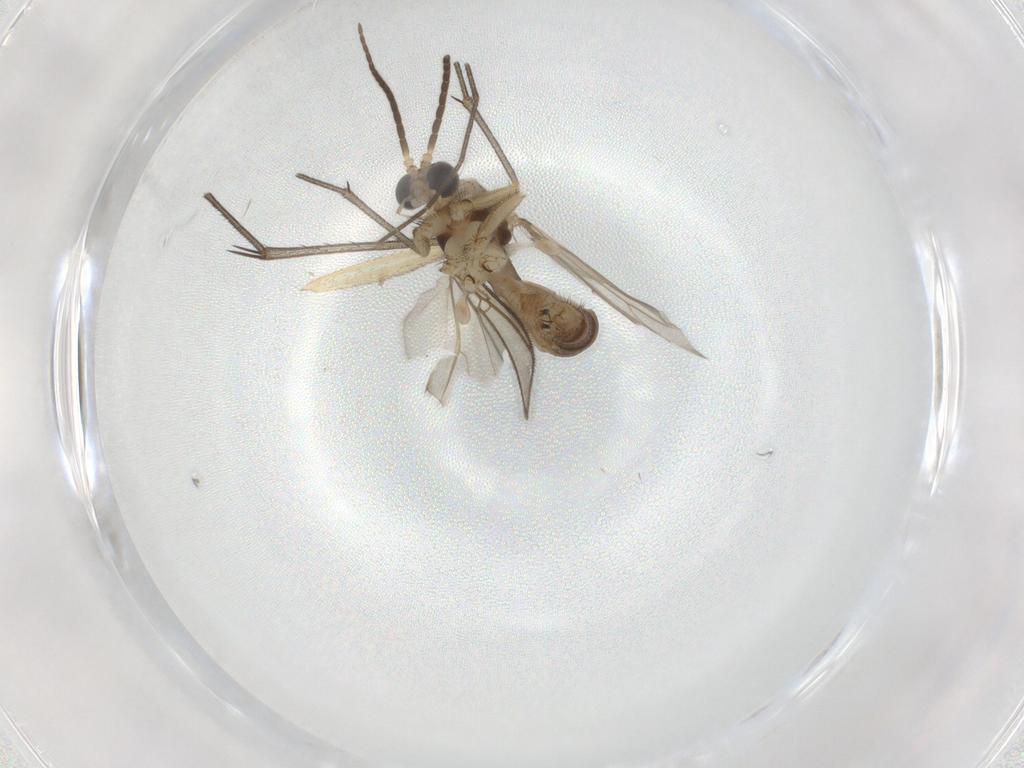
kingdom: Animalia
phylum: Arthropoda
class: Insecta
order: Diptera
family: Mycetophilidae
